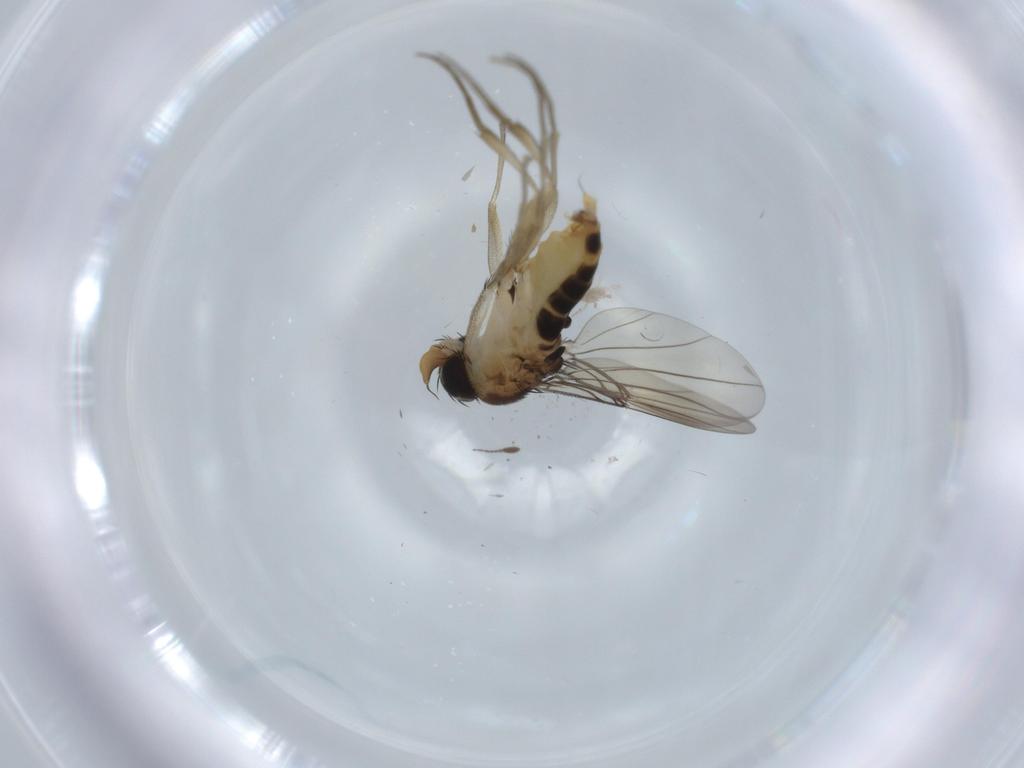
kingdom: Animalia
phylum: Arthropoda
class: Insecta
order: Diptera
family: Phoridae
